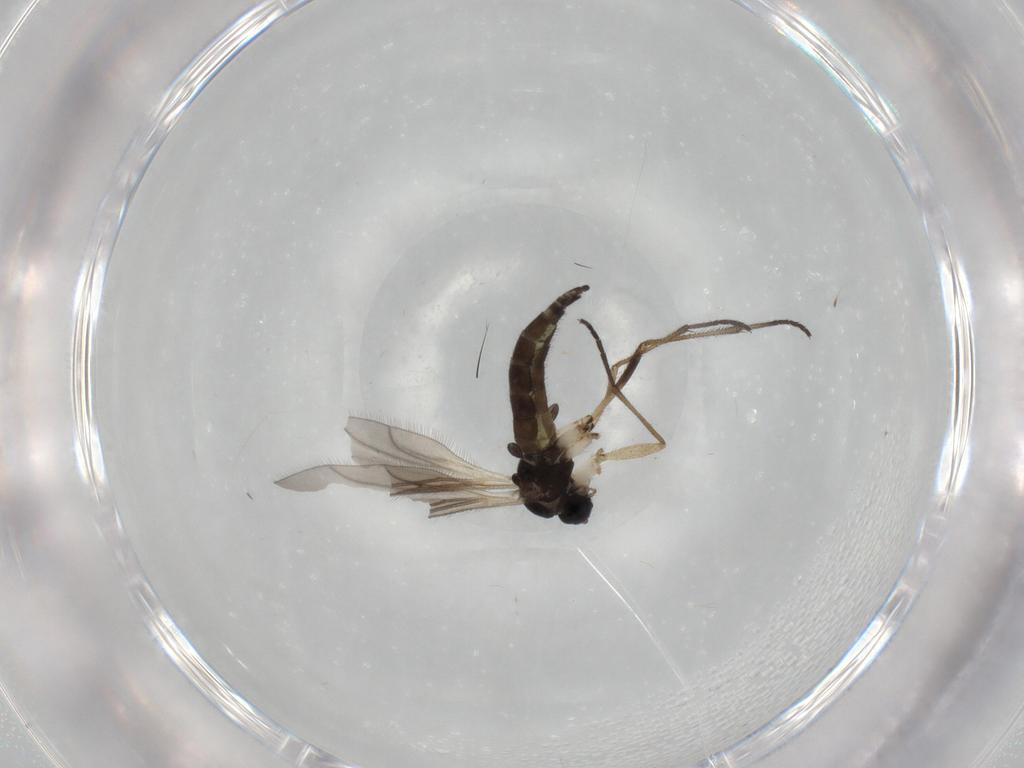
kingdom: Animalia
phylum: Arthropoda
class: Insecta
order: Diptera
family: Sciaridae
